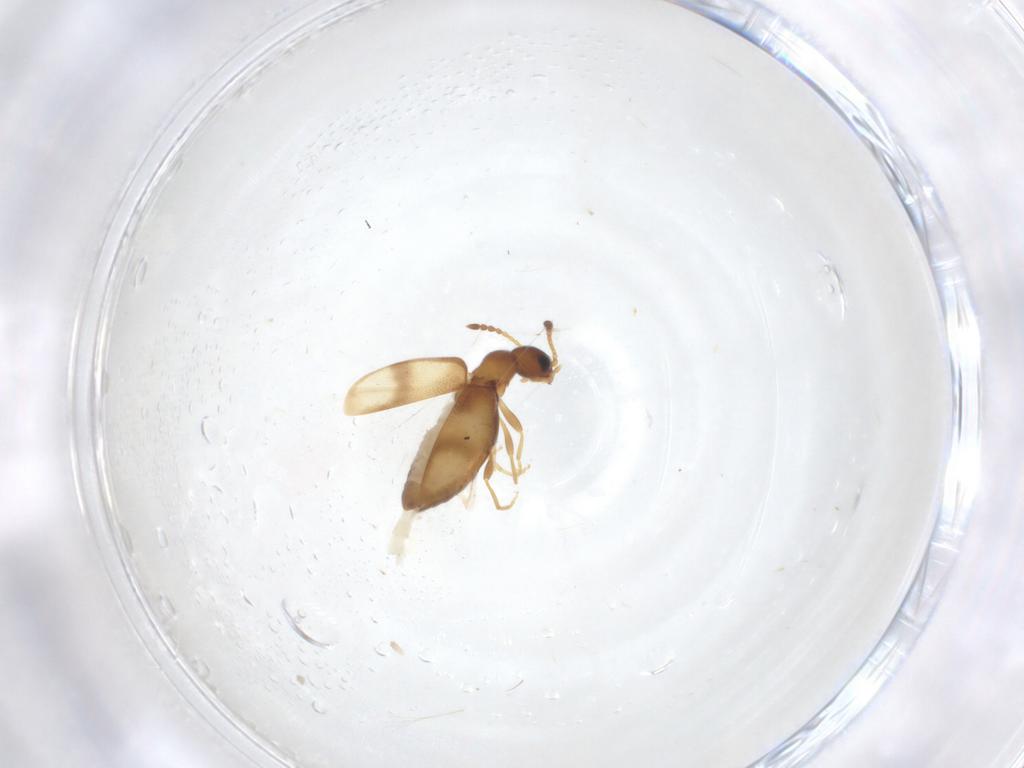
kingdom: Animalia
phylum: Arthropoda
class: Insecta
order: Coleoptera
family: Anthicidae
